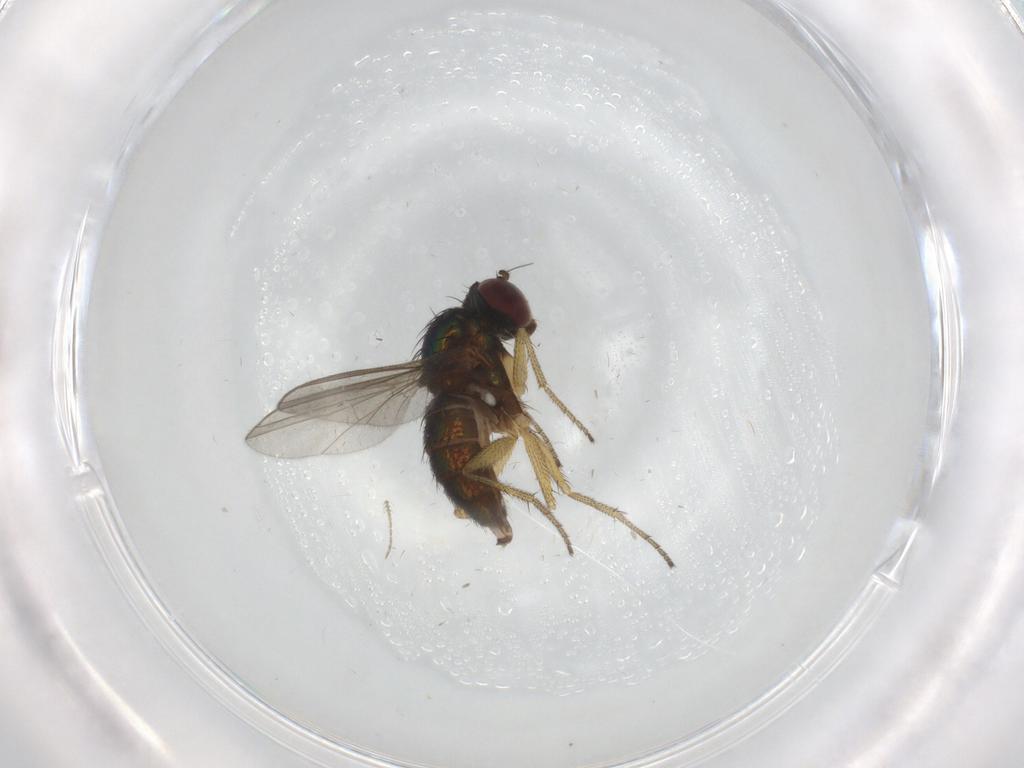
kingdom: Animalia
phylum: Arthropoda
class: Insecta
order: Diptera
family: Dolichopodidae
